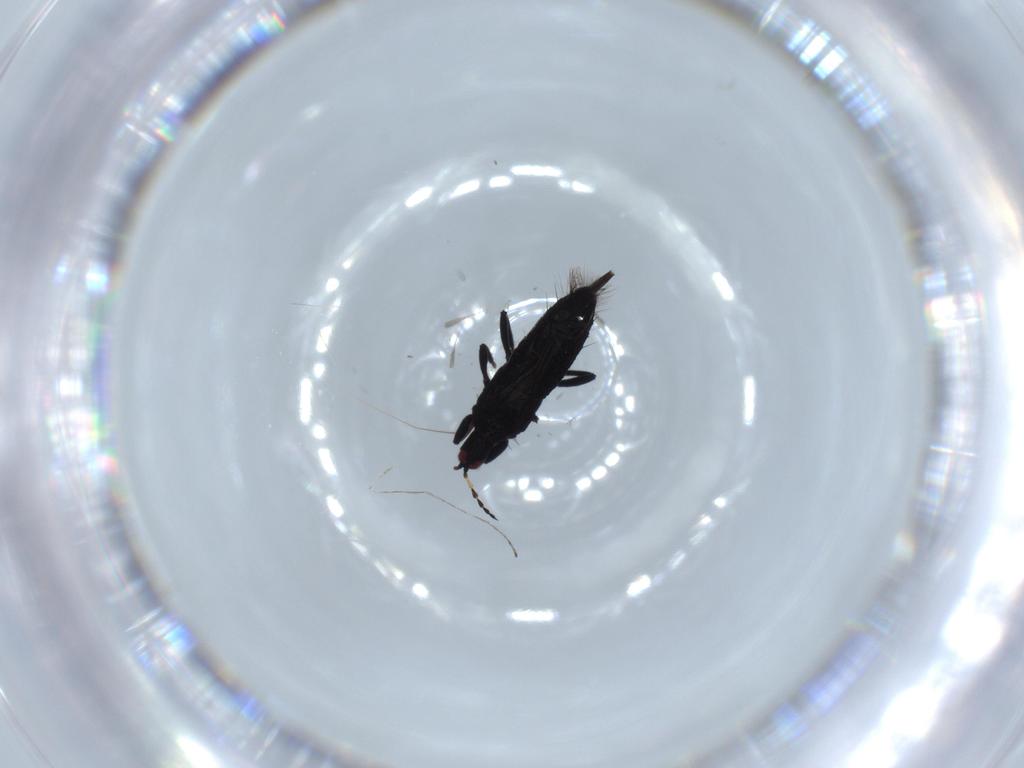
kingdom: Animalia
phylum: Arthropoda
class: Insecta
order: Thysanoptera
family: Phlaeothripidae
